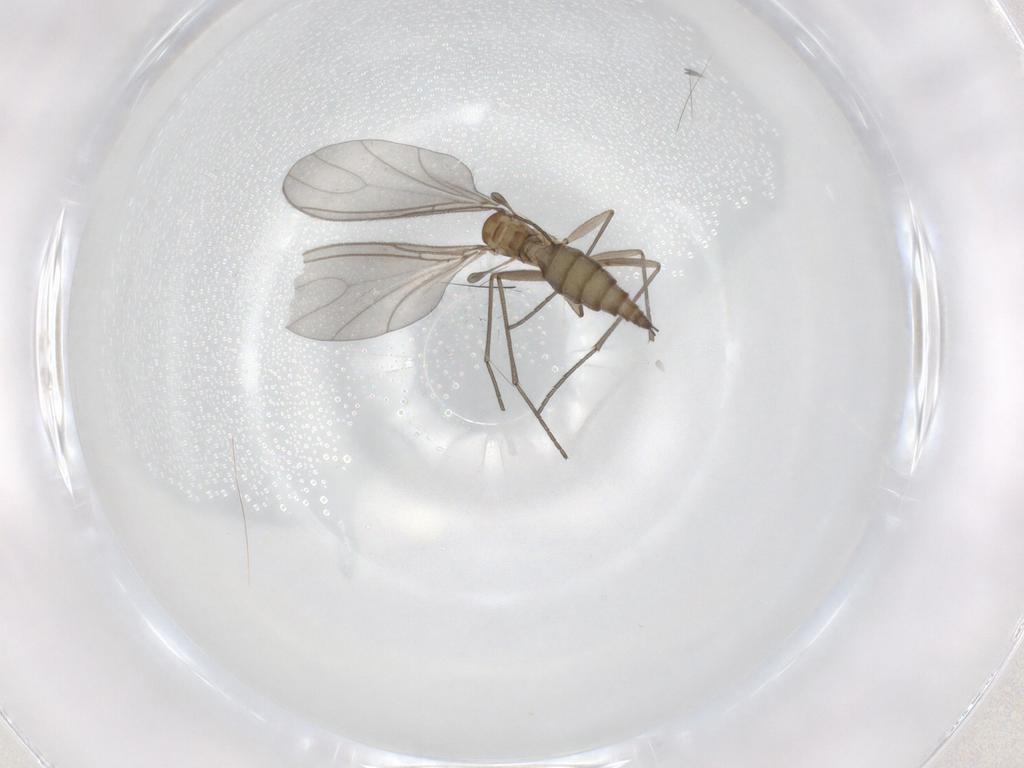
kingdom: Animalia
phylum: Arthropoda
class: Insecta
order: Diptera
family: Sciaridae
